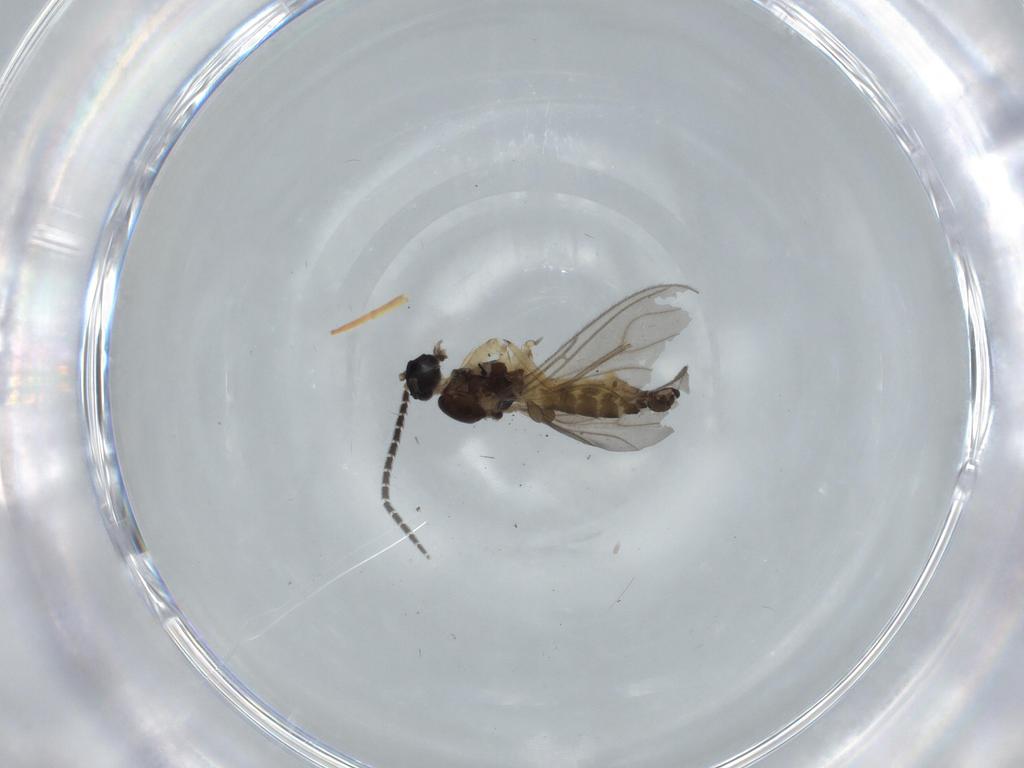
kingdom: Animalia
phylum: Arthropoda
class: Insecta
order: Diptera
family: Sciaridae
